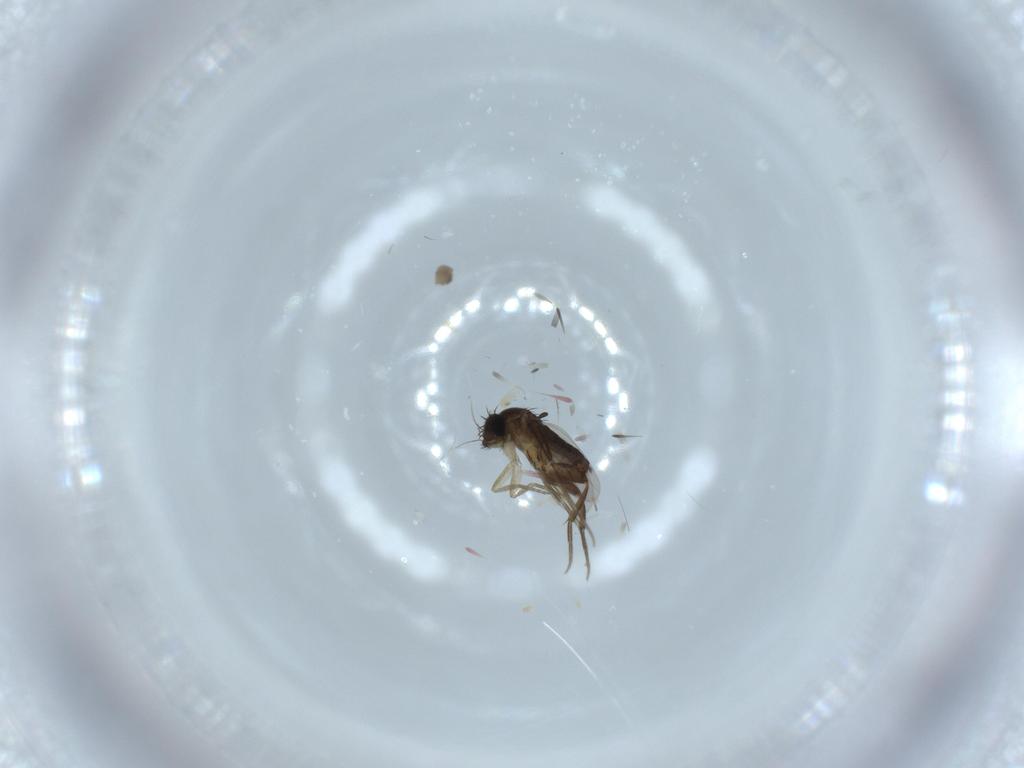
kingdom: Animalia
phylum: Arthropoda
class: Insecta
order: Diptera
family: Phoridae
